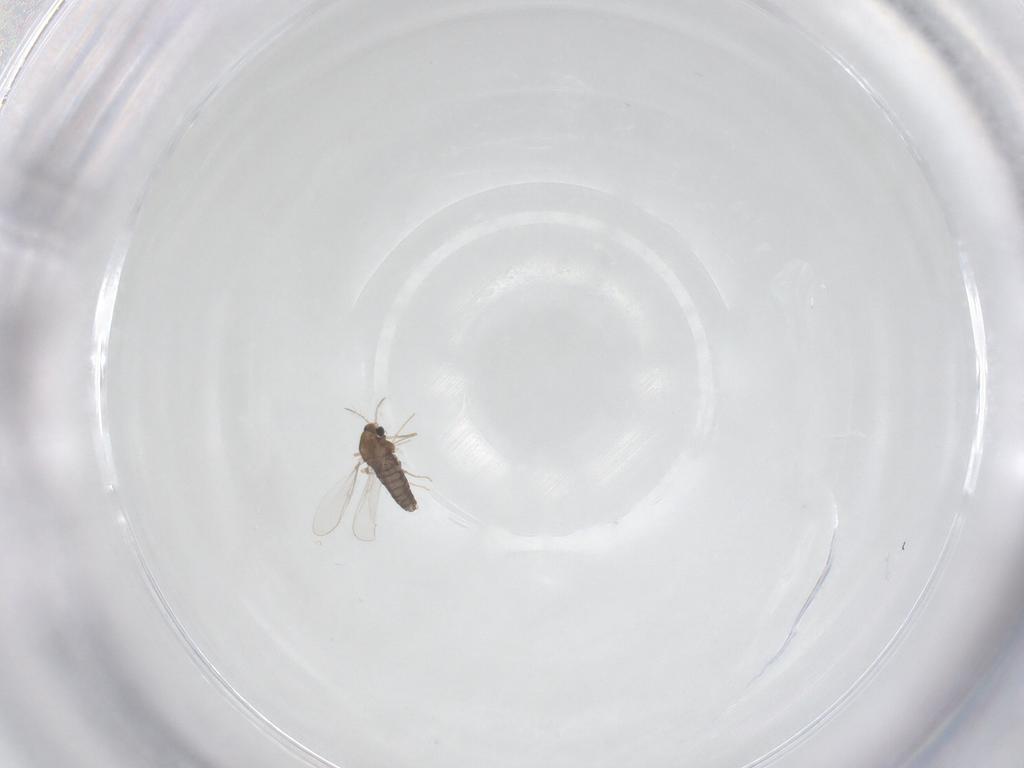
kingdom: Animalia
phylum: Arthropoda
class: Insecta
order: Diptera
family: Chironomidae
